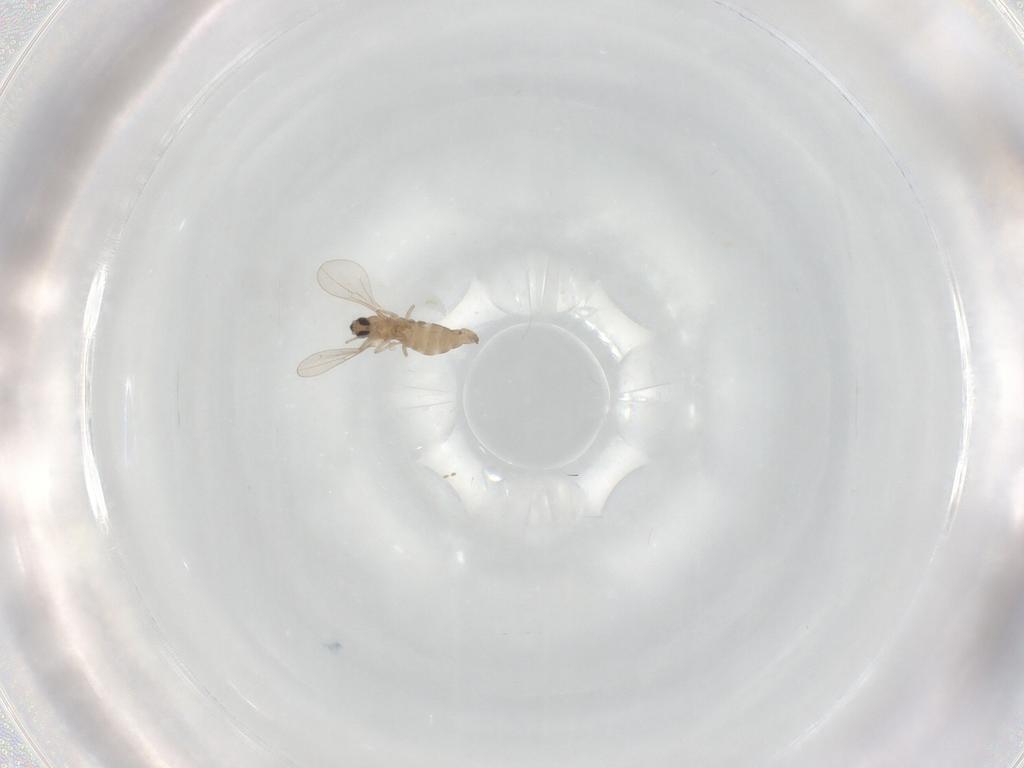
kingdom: Animalia
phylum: Arthropoda
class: Insecta
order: Diptera
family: Cecidomyiidae
